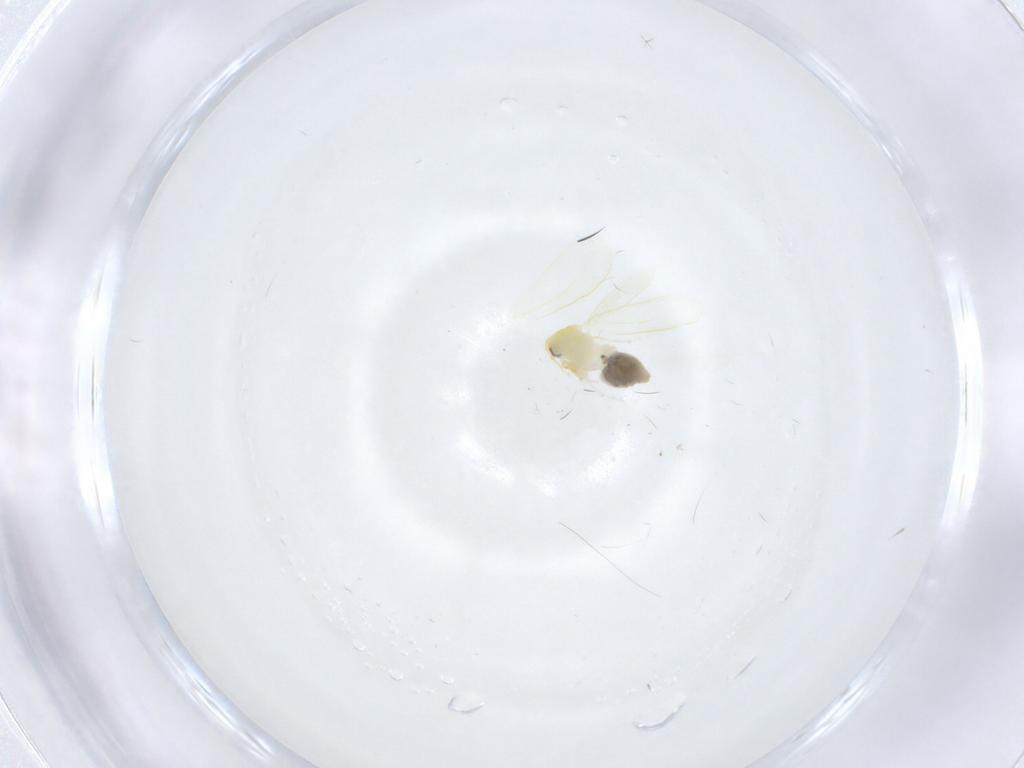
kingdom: Animalia
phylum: Arthropoda
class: Insecta
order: Hemiptera
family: Aleyrodidae
